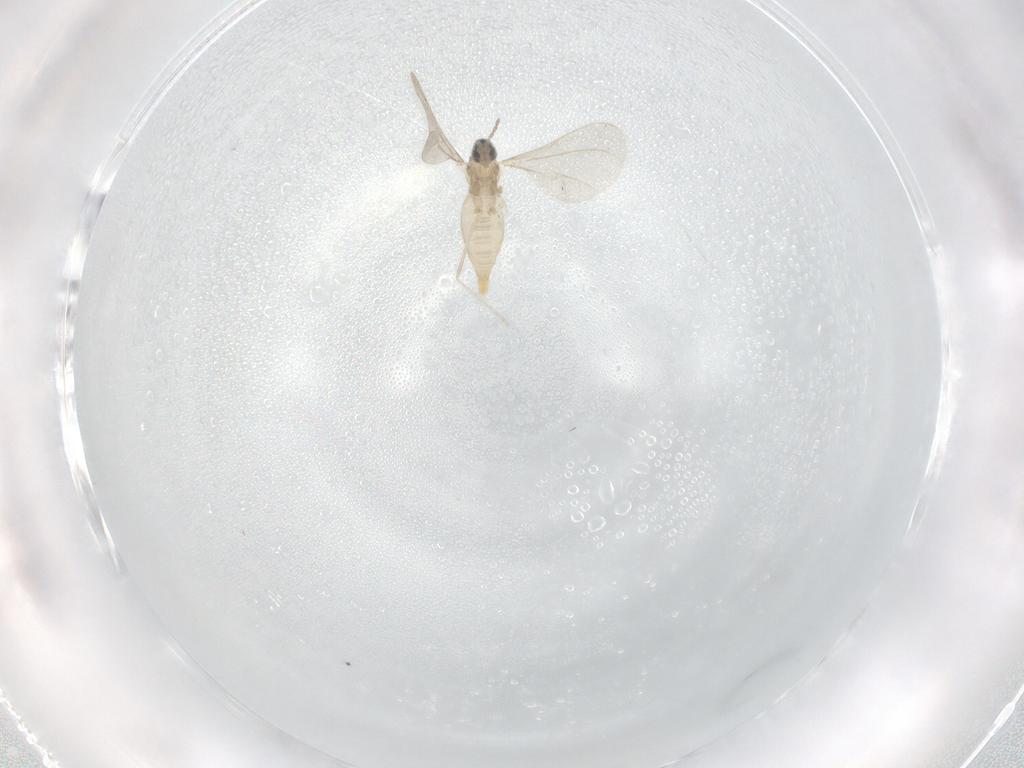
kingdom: Animalia
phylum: Arthropoda
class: Insecta
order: Diptera
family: Cecidomyiidae
